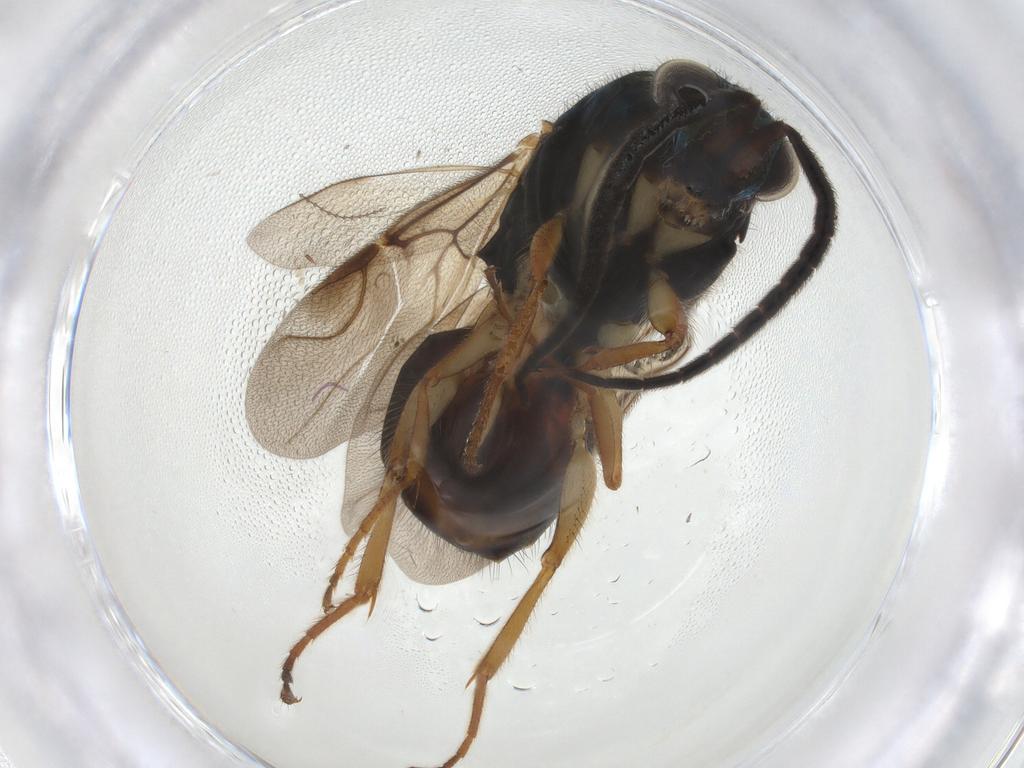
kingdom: Animalia
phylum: Arthropoda
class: Insecta
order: Hymenoptera
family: Chrysididae
